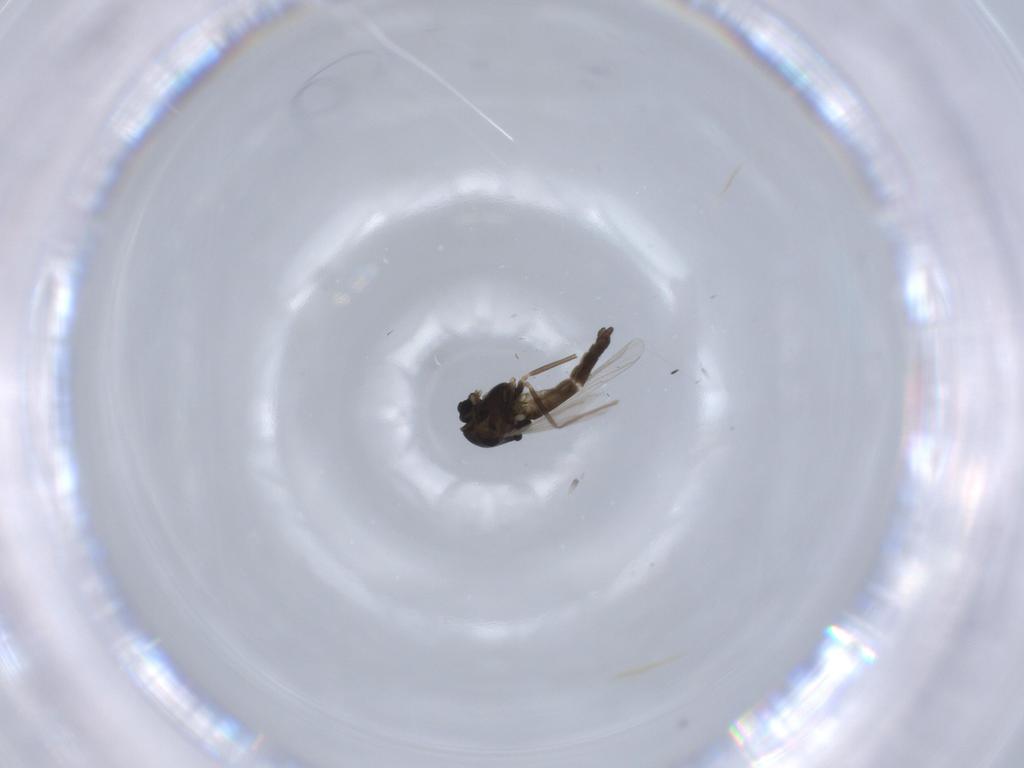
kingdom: Animalia
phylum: Arthropoda
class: Insecta
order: Diptera
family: Chironomidae
